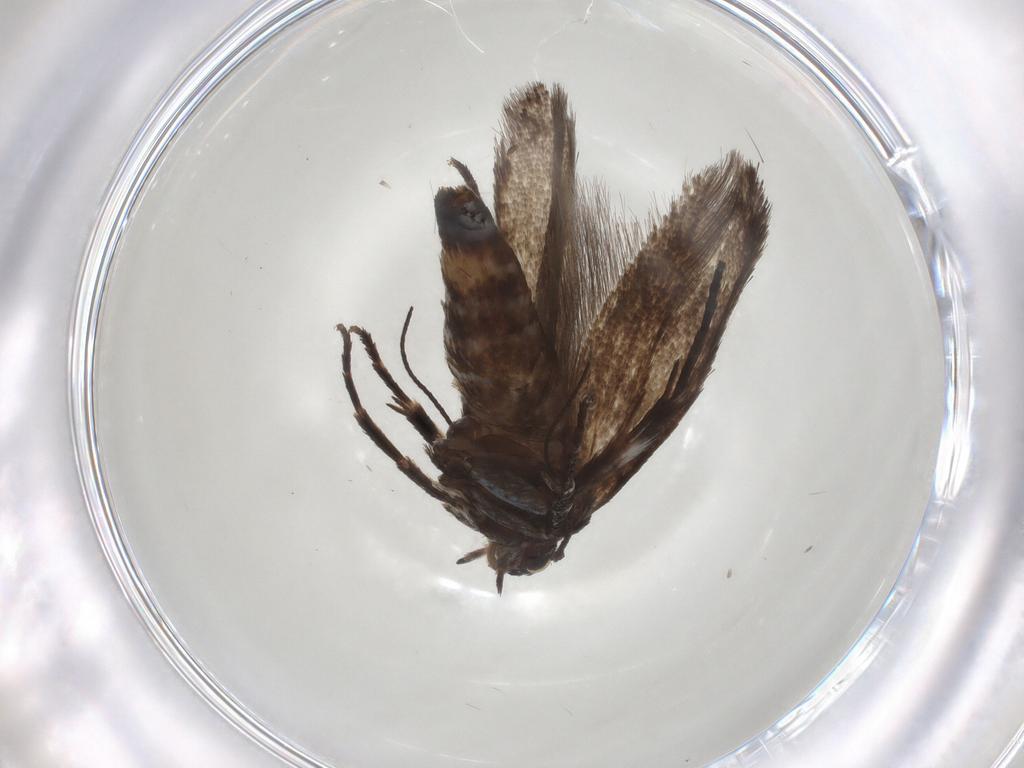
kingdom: Animalia
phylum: Arthropoda
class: Insecta
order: Lepidoptera
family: Scythrididae
